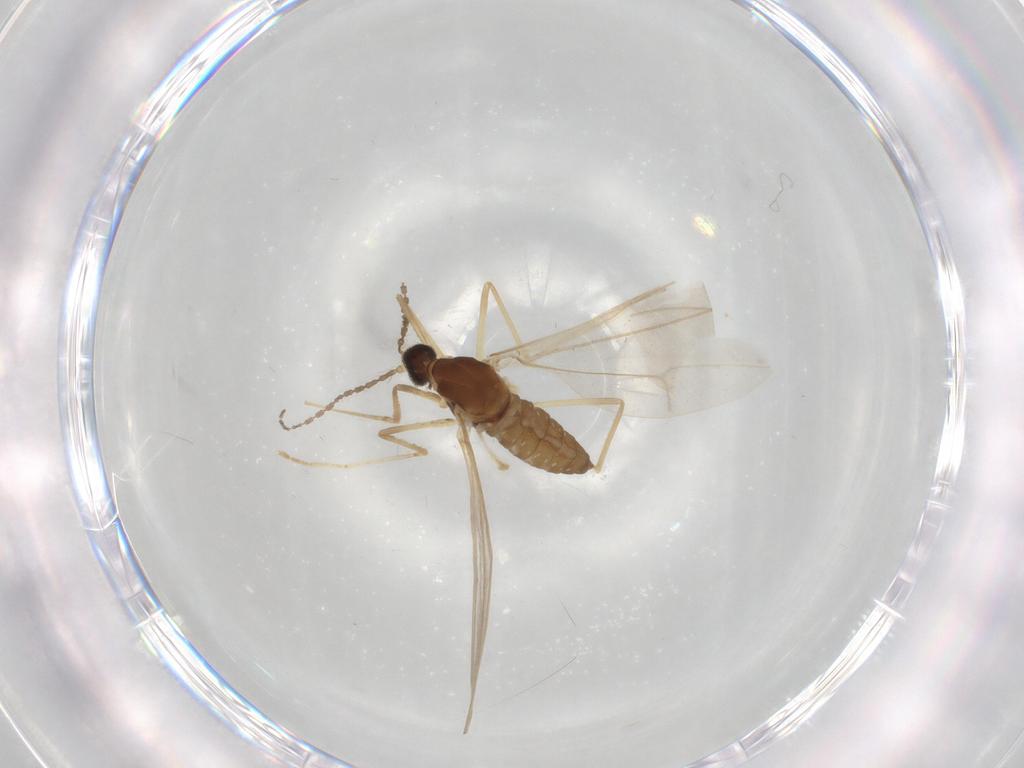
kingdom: Animalia
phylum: Arthropoda
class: Insecta
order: Diptera
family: Cecidomyiidae
